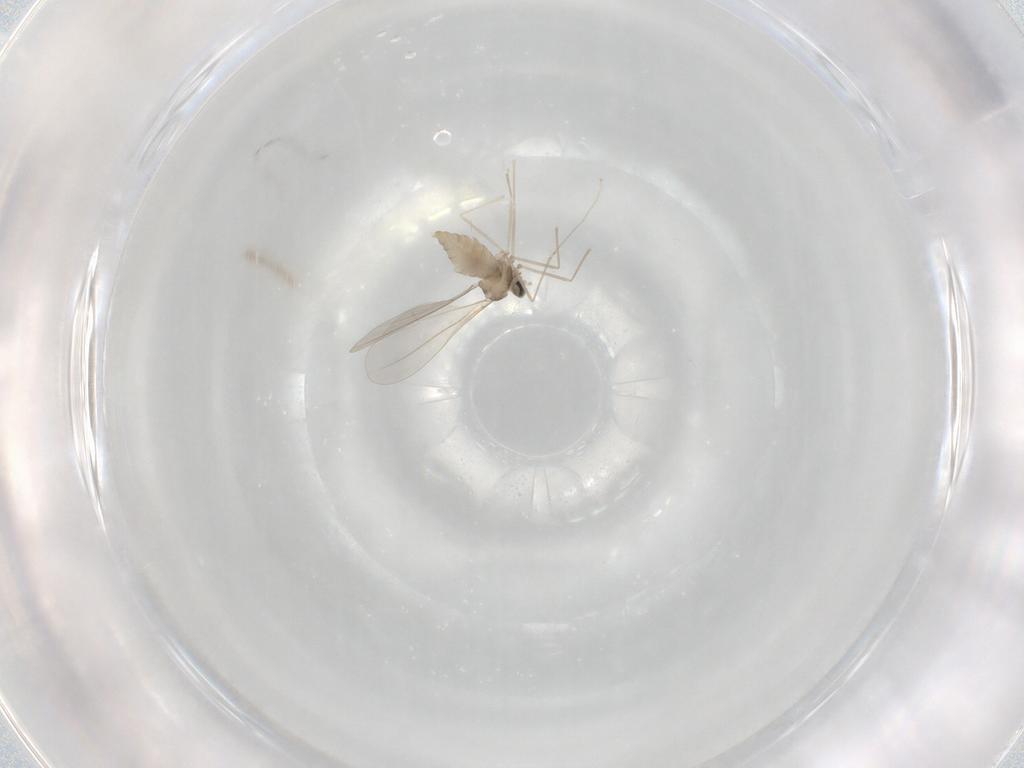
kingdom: Animalia
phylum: Arthropoda
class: Insecta
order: Diptera
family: Cecidomyiidae
